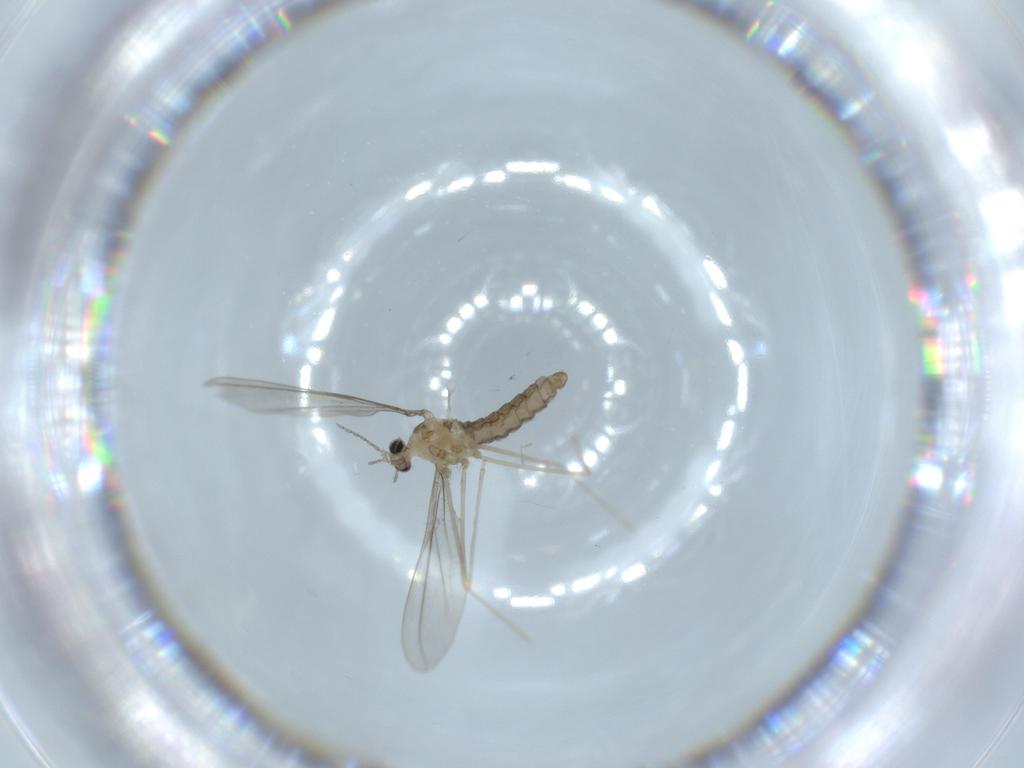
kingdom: Animalia
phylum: Arthropoda
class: Insecta
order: Diptera
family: Cecidomyiidae
